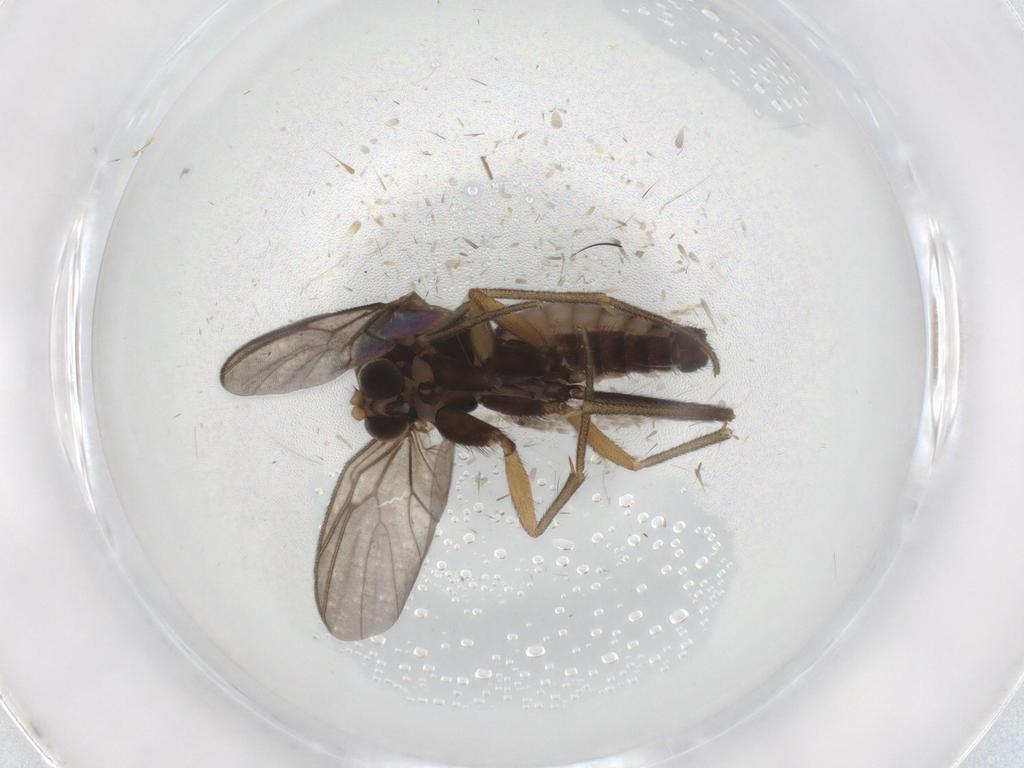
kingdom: Animalia
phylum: Arthropoda
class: Insecta
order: Diptera
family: Mycetophilidae
